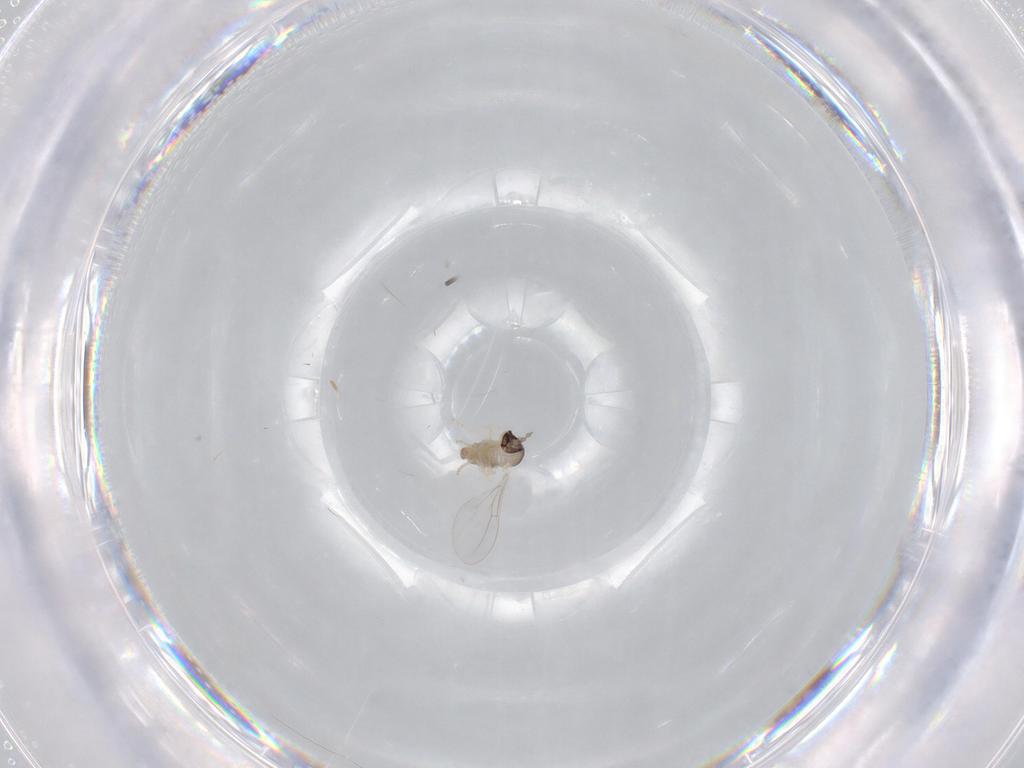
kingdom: Animalia
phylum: Arthropoda
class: Insecta
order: Diptera
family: Cecidomyiidae
